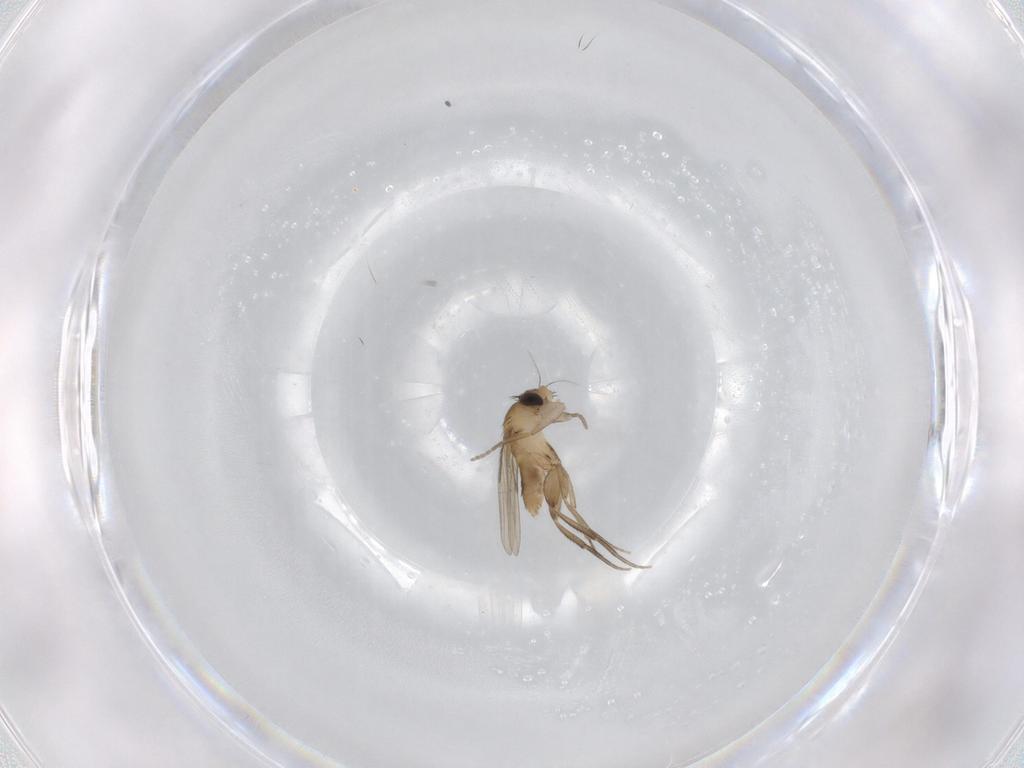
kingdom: Animalia
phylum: Arthropoda
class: Insecta
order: Diptera
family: Phoridae
